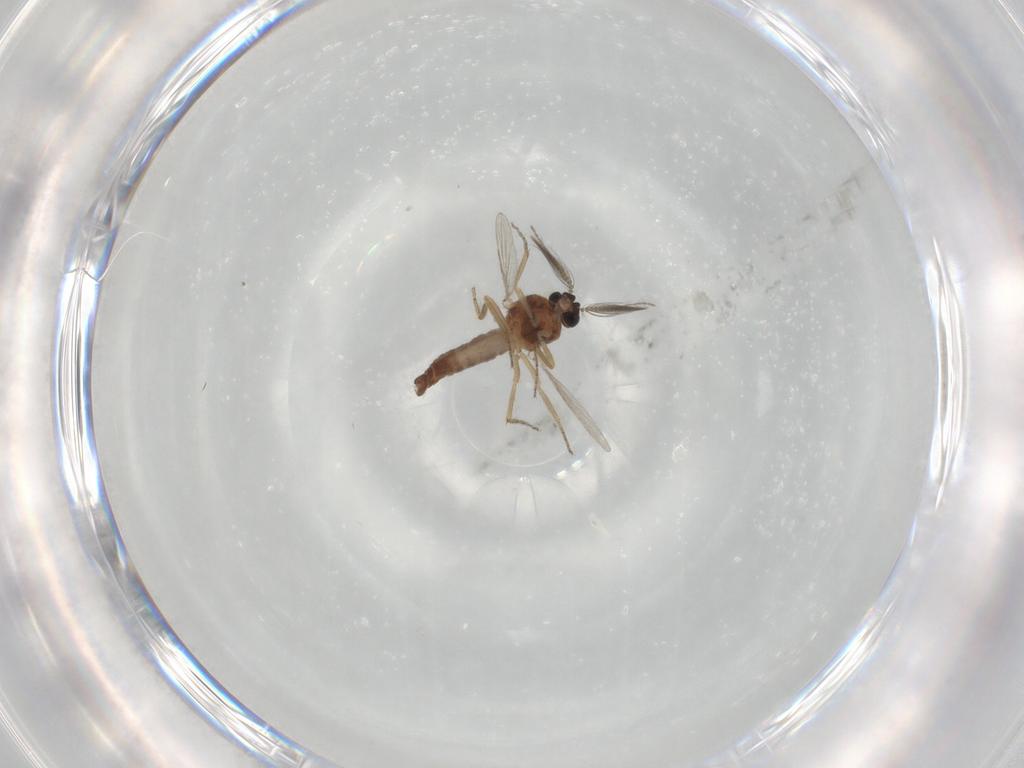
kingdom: Animalia
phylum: Arthropoda
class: Insecta
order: Diptera
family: Ceratopogonidae
